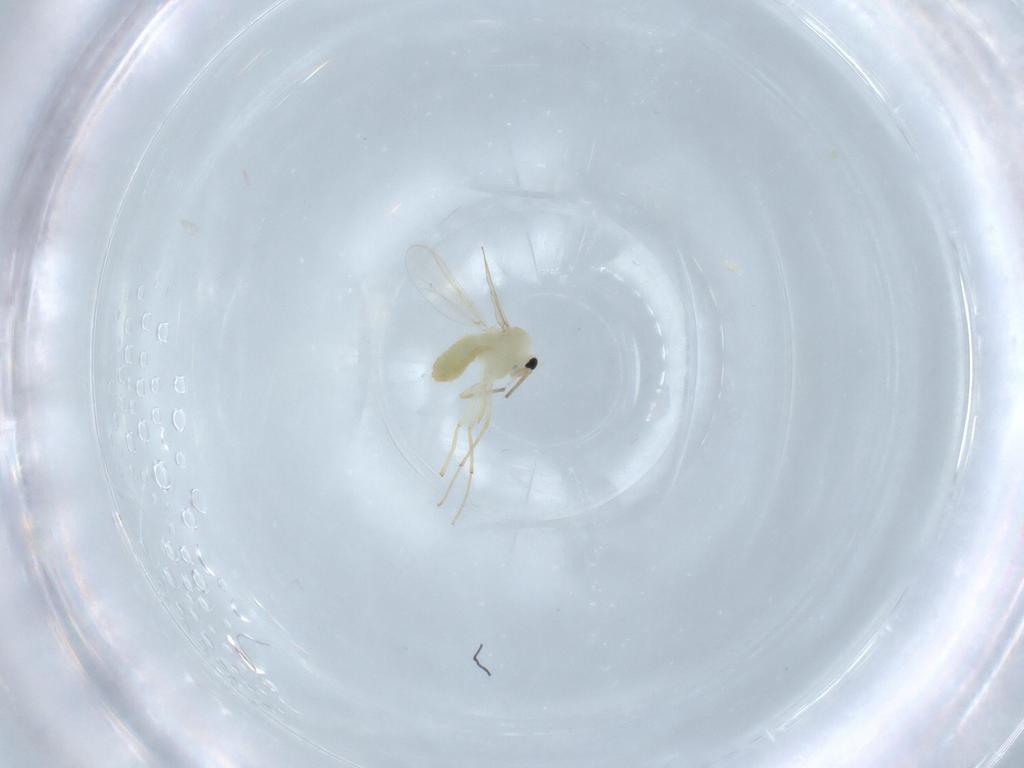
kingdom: Animalia
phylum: Arthropoda
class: Insecta
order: Diptera
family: Chironomidae
